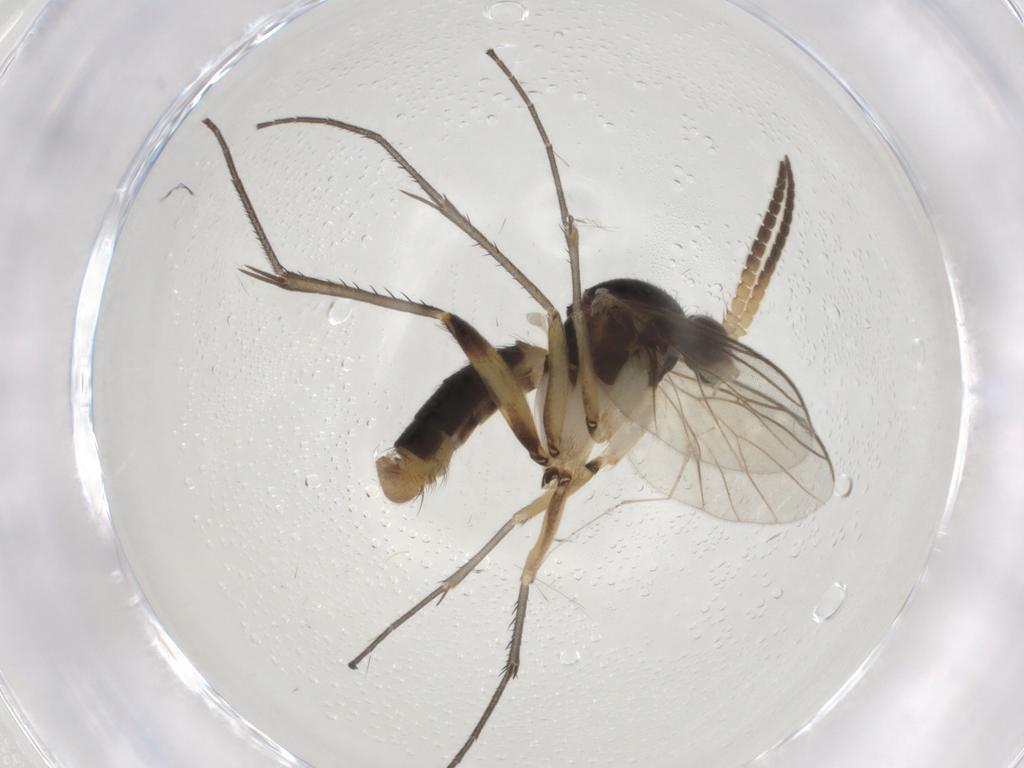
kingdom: Animalia
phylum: Arthropoda
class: Insecta
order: Diptera
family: Mycetophilidae
